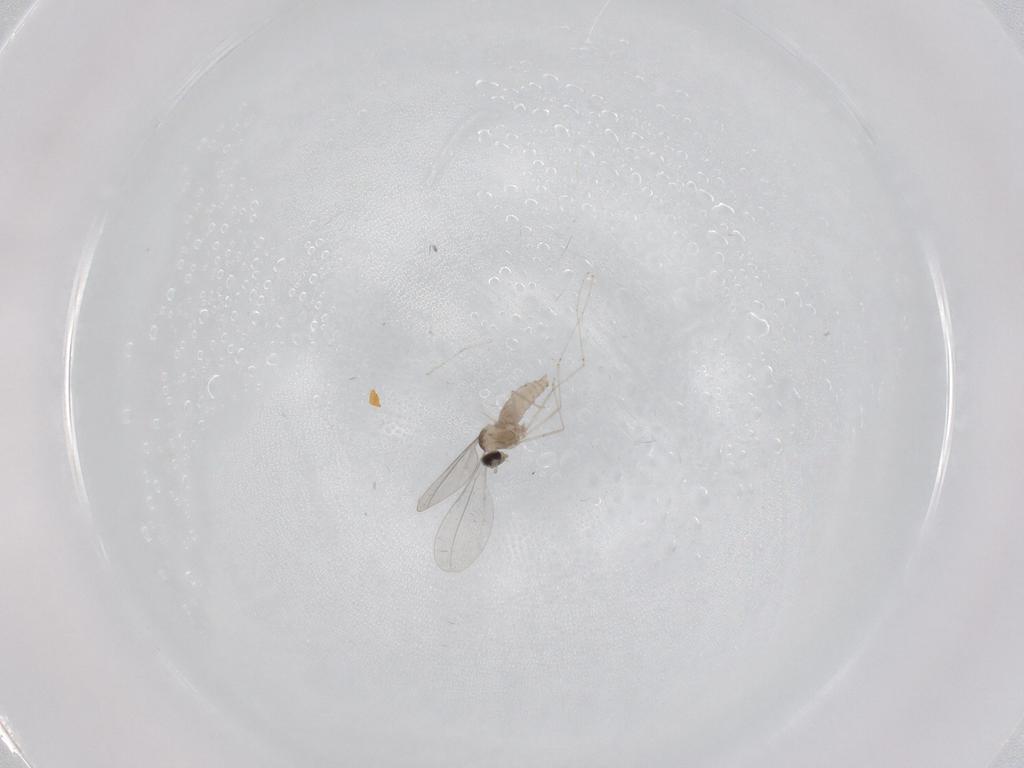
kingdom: Animalia
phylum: Arthropoda
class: Insecta
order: Diptera
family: Cecidomyiidae
